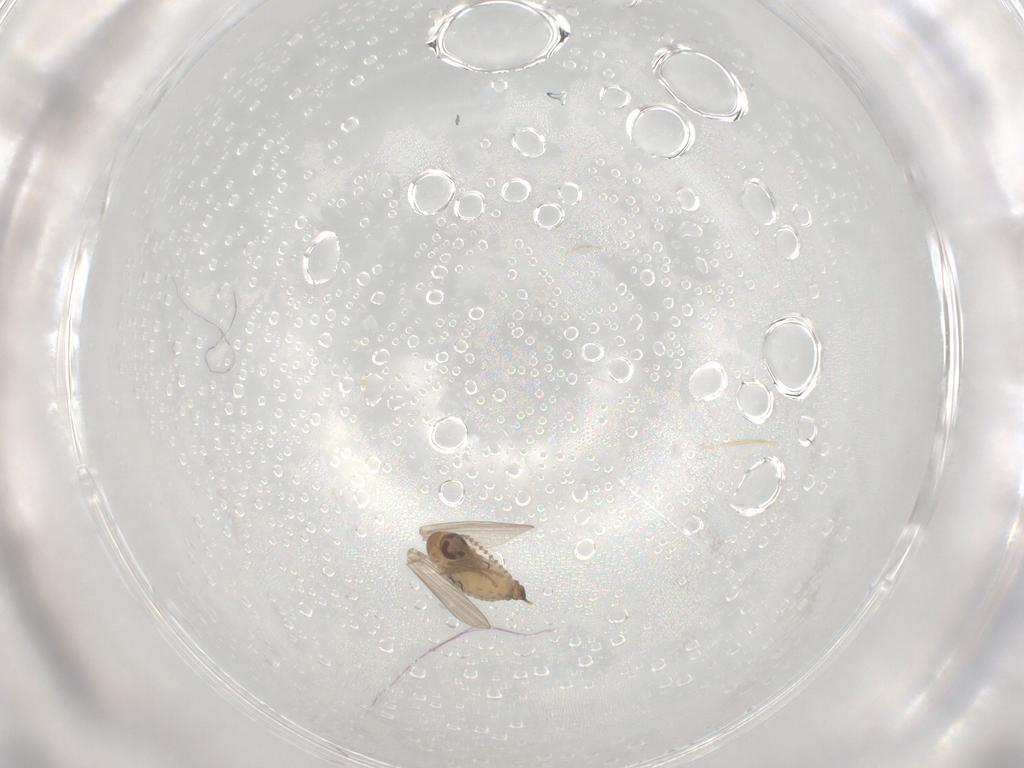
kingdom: Animalia
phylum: Arthropoda
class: Insecta
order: Diptera
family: Psychodidae
